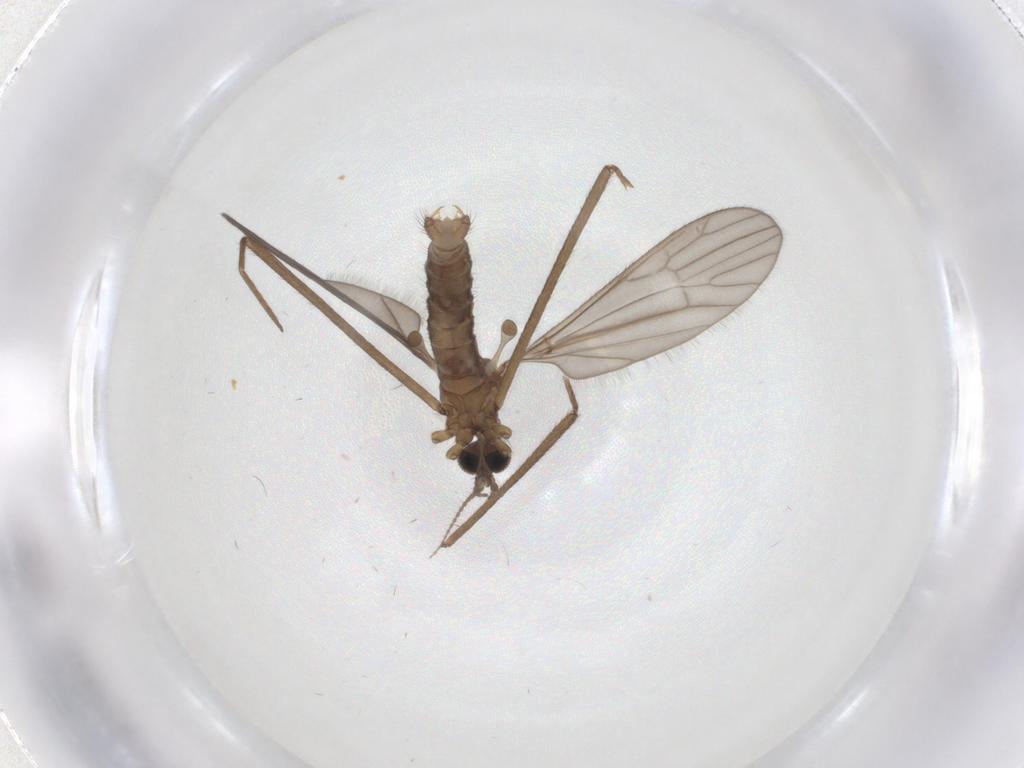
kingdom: Animalia
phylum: Arthropoda
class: Insecta
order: Diptera
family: Limoniidae
